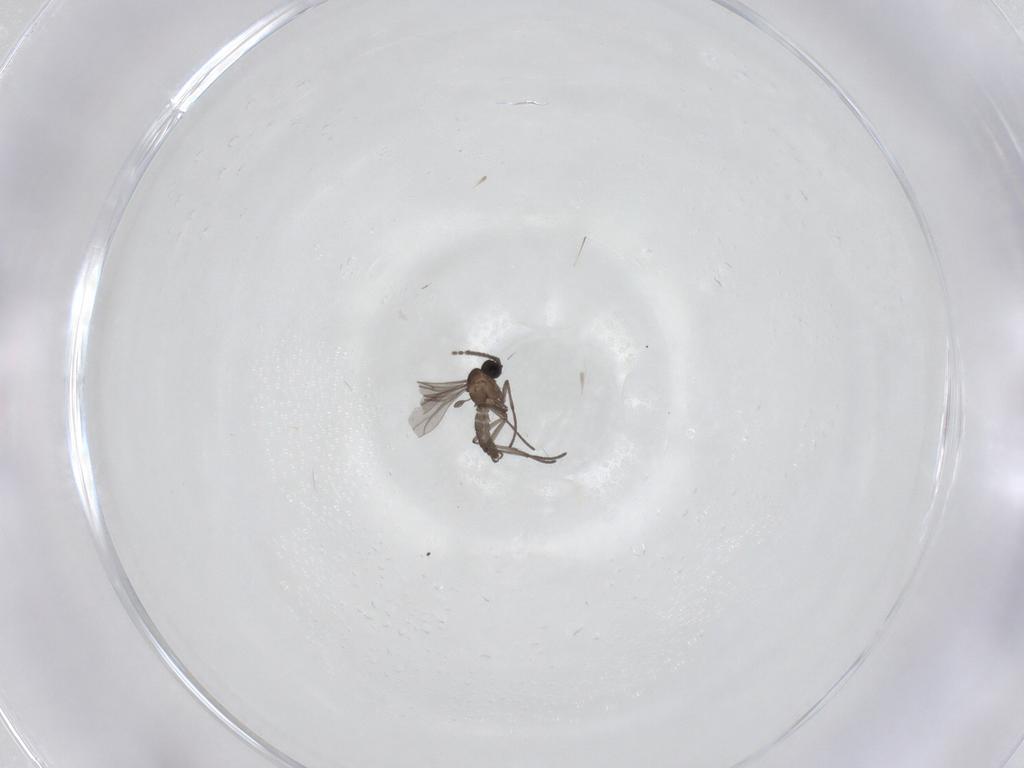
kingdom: Animalia
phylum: Arthropoda
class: Insecta
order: Diptera
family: Sciaridae
